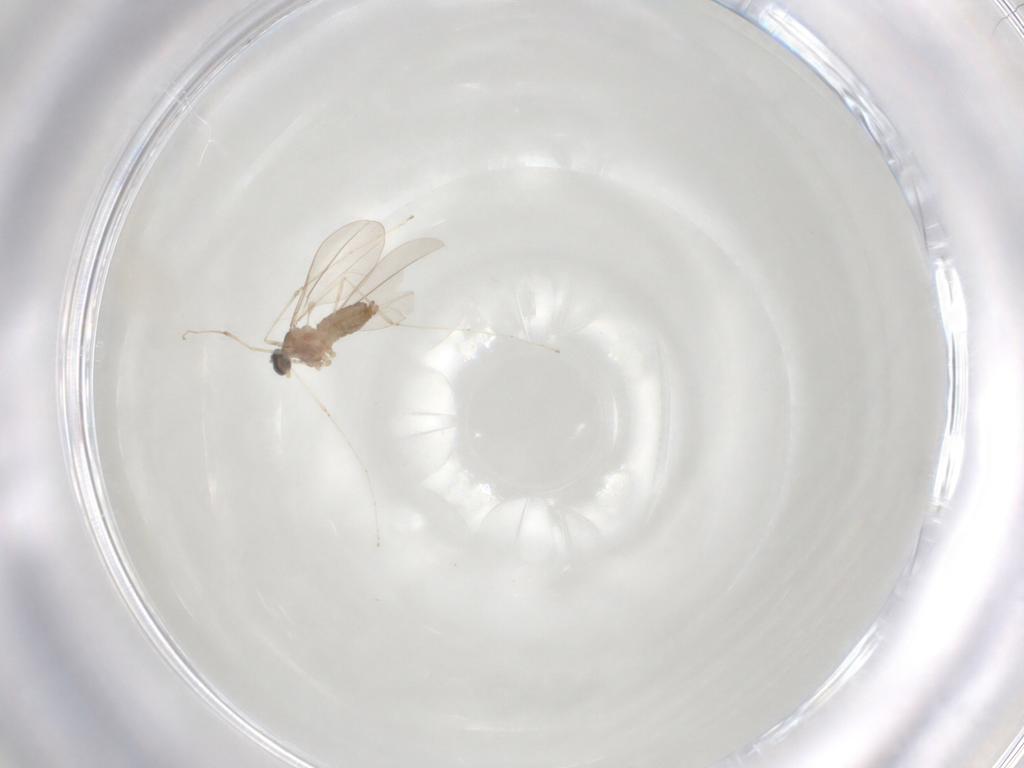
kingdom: Animalia
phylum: Arthropoda
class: Insecta
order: Diptera
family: Cecidomyiidae
